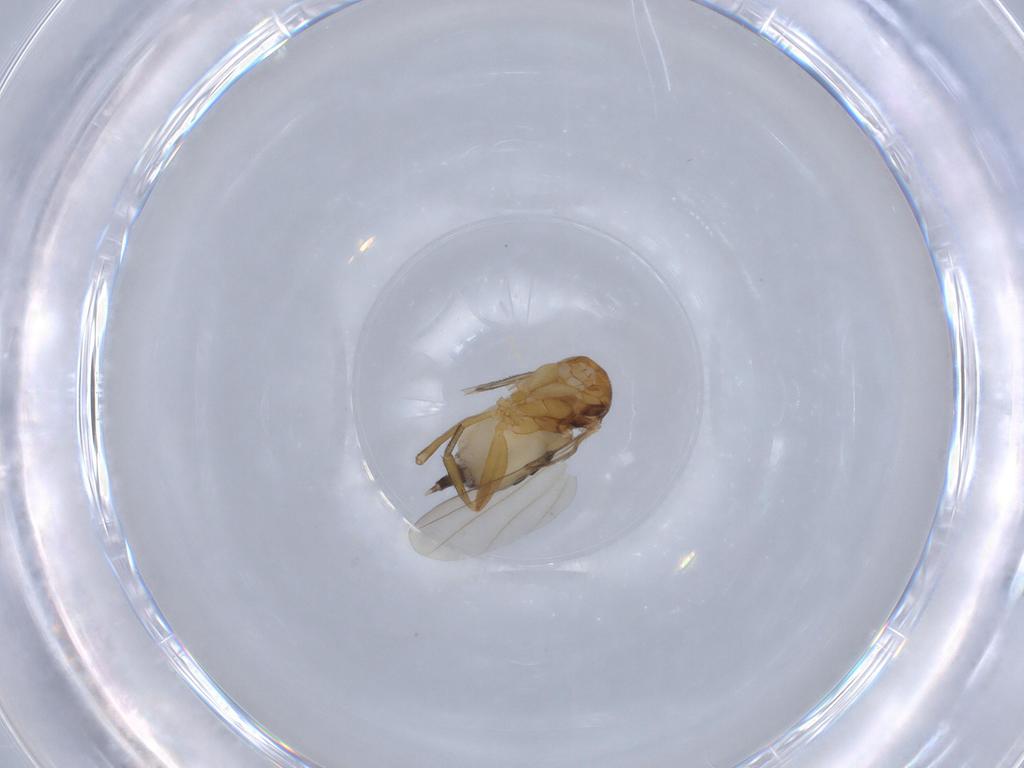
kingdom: Animalia
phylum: Arthropoda
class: Insecta
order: Diptera
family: Phoridae
